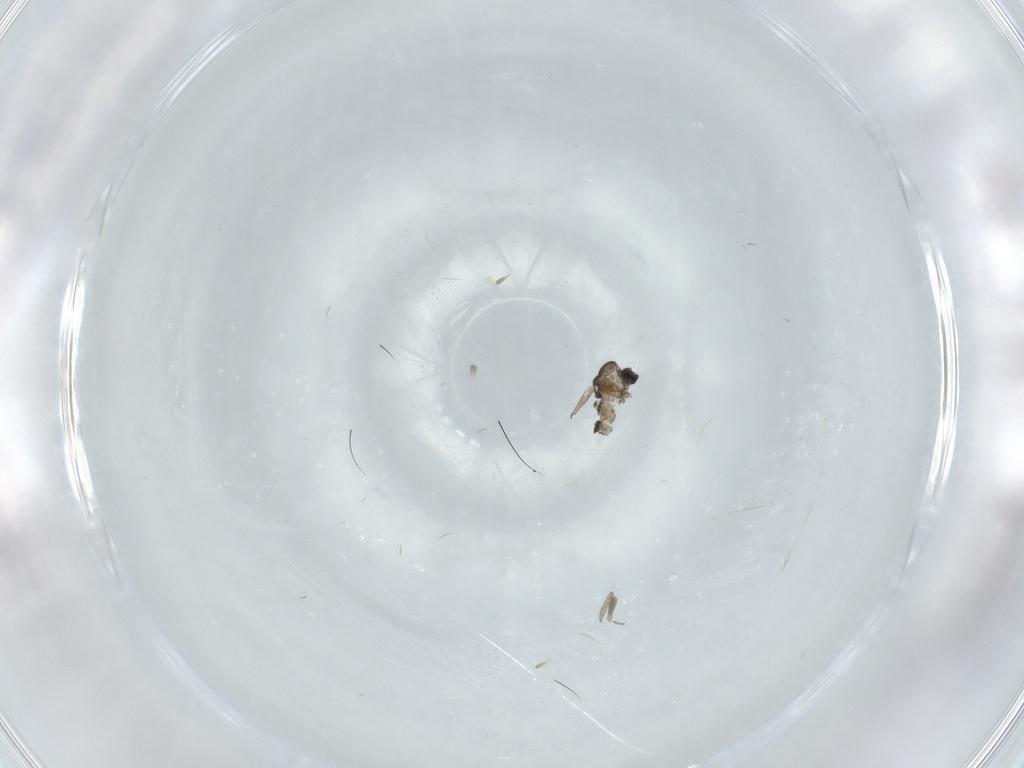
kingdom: Animalia
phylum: Arthropoda
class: Insecta
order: Diptera
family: Cecidomyiidae
